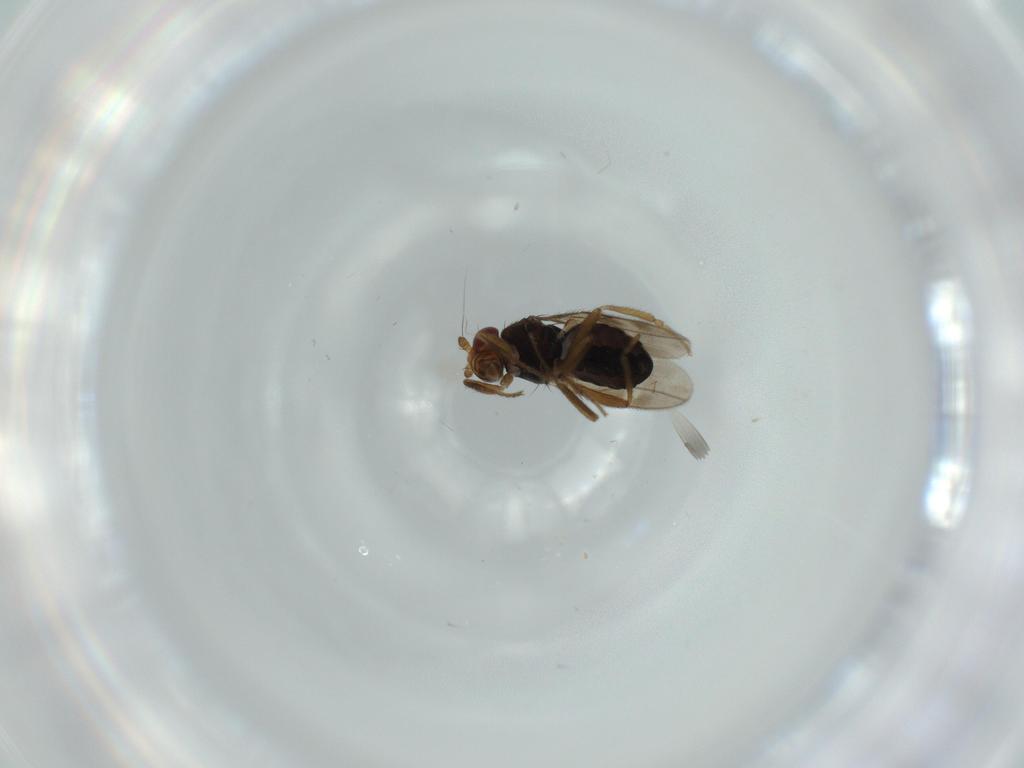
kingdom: Animalia
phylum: Arthropoda
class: Insecta
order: Diptera
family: Sphaeroceridae
